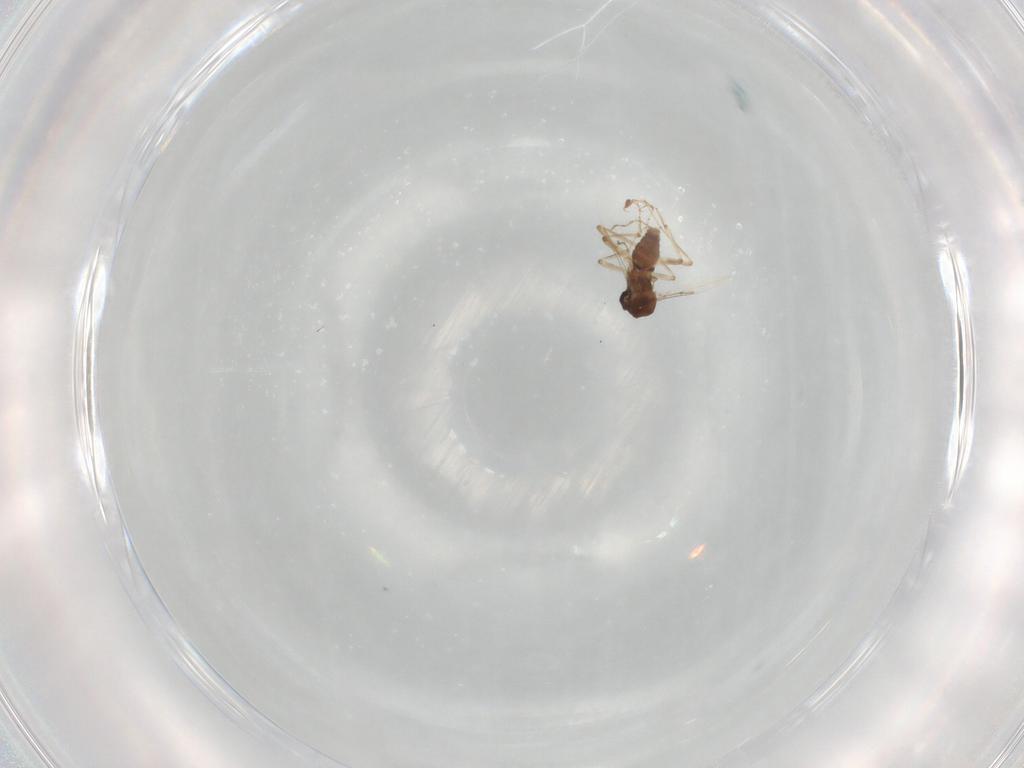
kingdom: Animalia
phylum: Arthropoda
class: Insecta
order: Diptera
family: Ceratopogonidae
